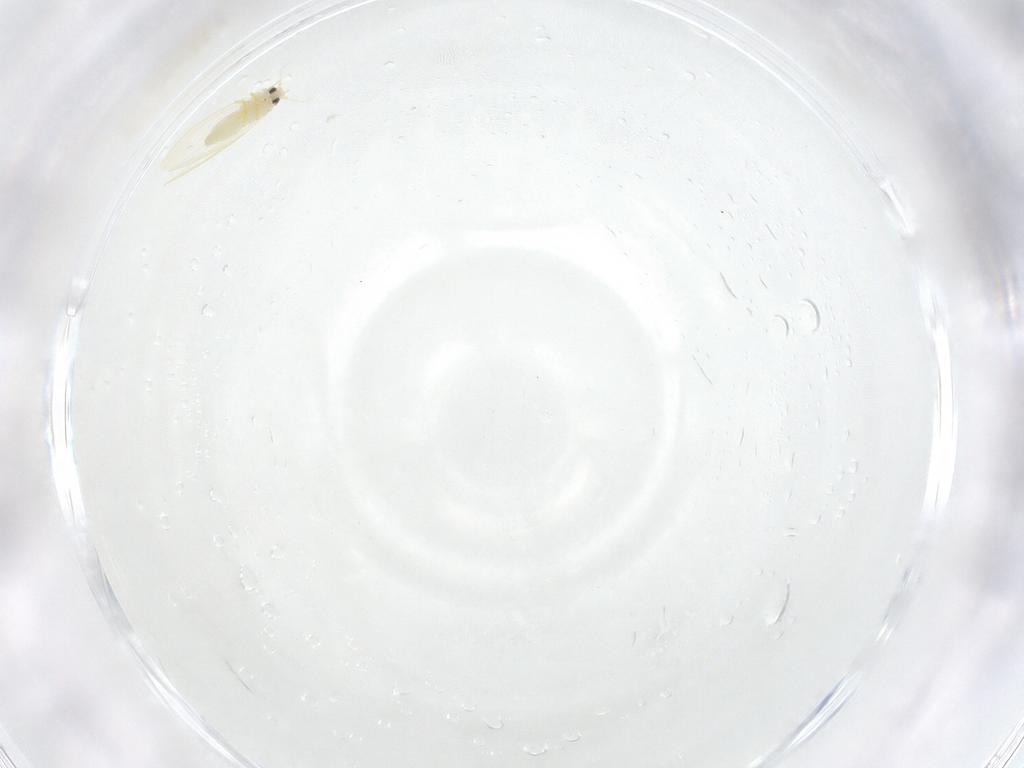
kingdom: Animalia
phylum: Arthropoda
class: Insecta
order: Hemiptera
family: Aleyrodidae
